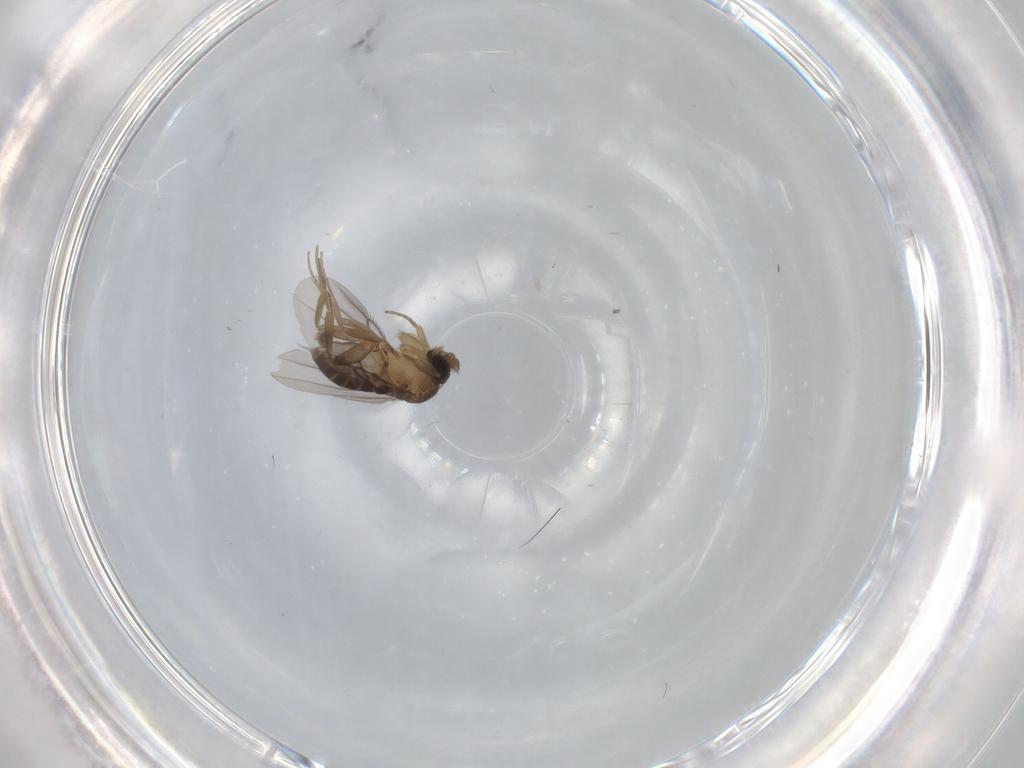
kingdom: Animalia
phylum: Arthropoda
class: Insecta
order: Diptera
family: Phoridae
